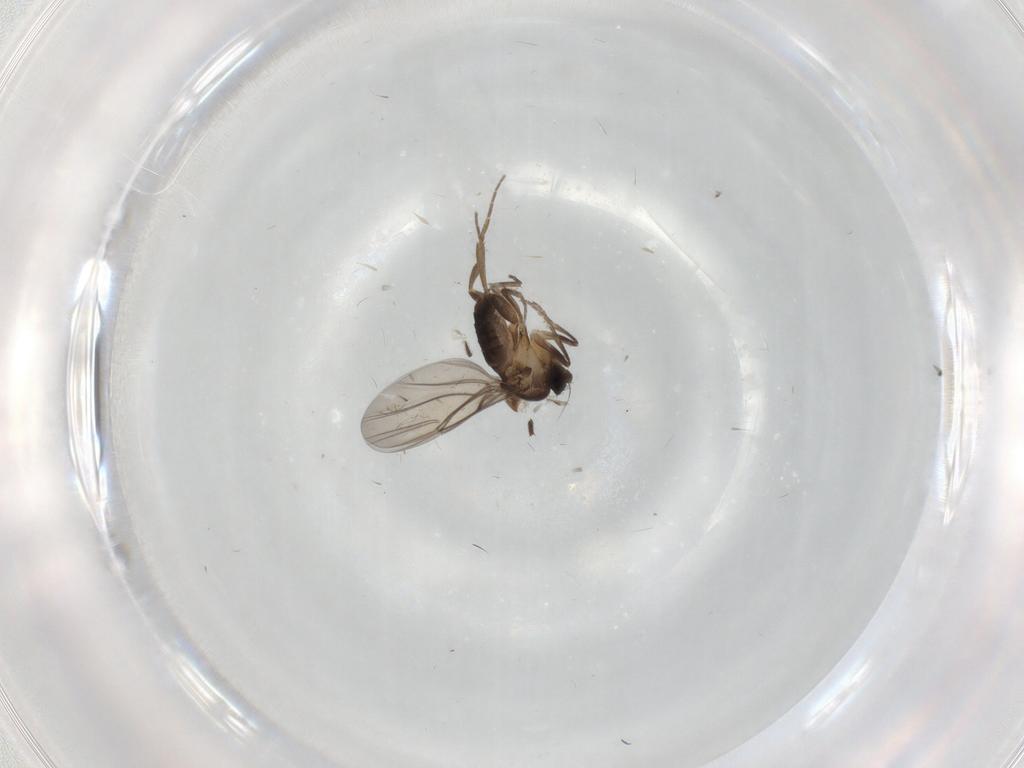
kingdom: Animalia
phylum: Arthropoda
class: Insecta
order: Diptera
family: Phoridae
